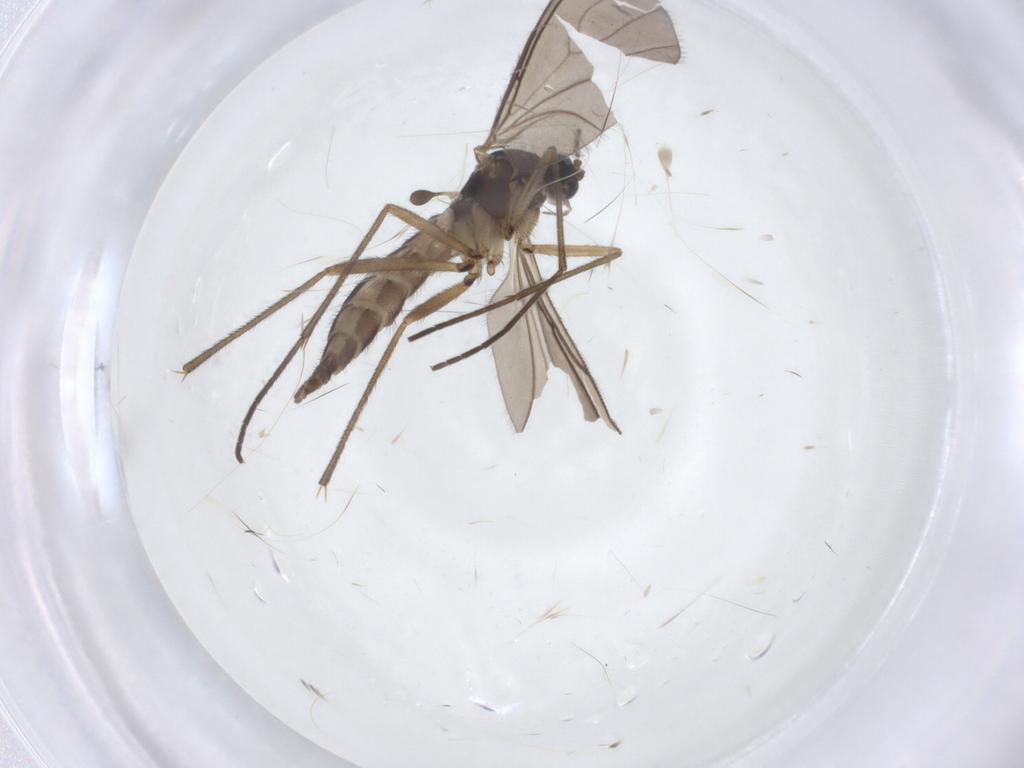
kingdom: Animalia
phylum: Arthropoda
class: Insecta
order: Diptera
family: Sciaridae
